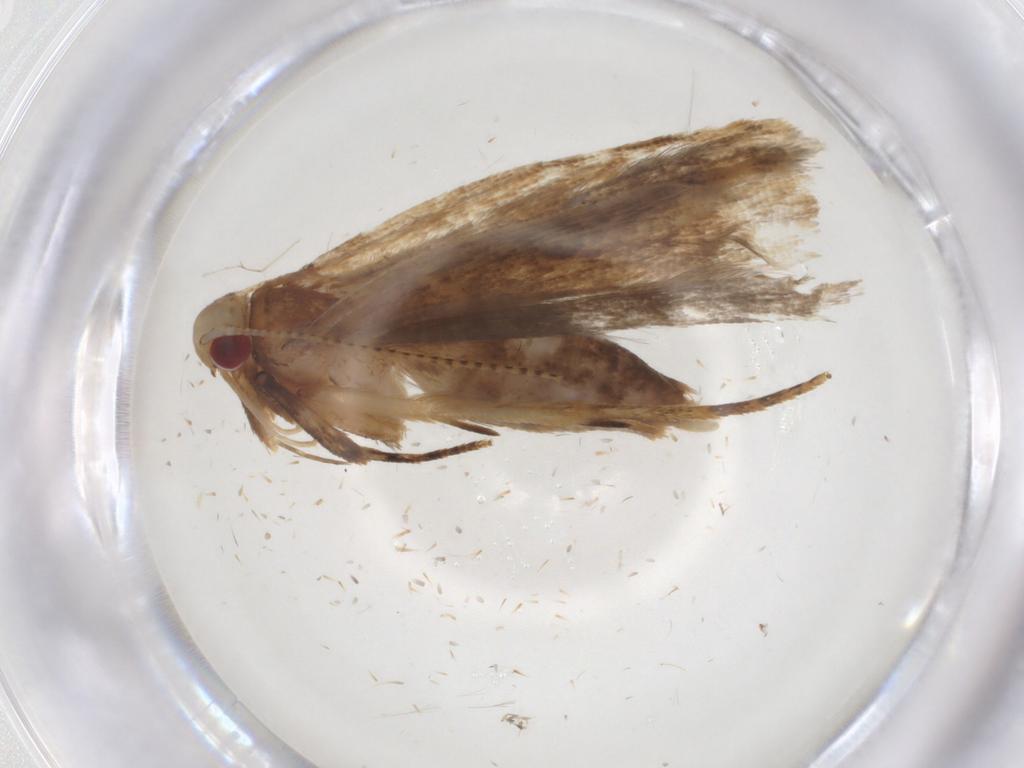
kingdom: Animalia
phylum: Arthropoda
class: Insecta
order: Lepidoptera
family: Depressariidae
